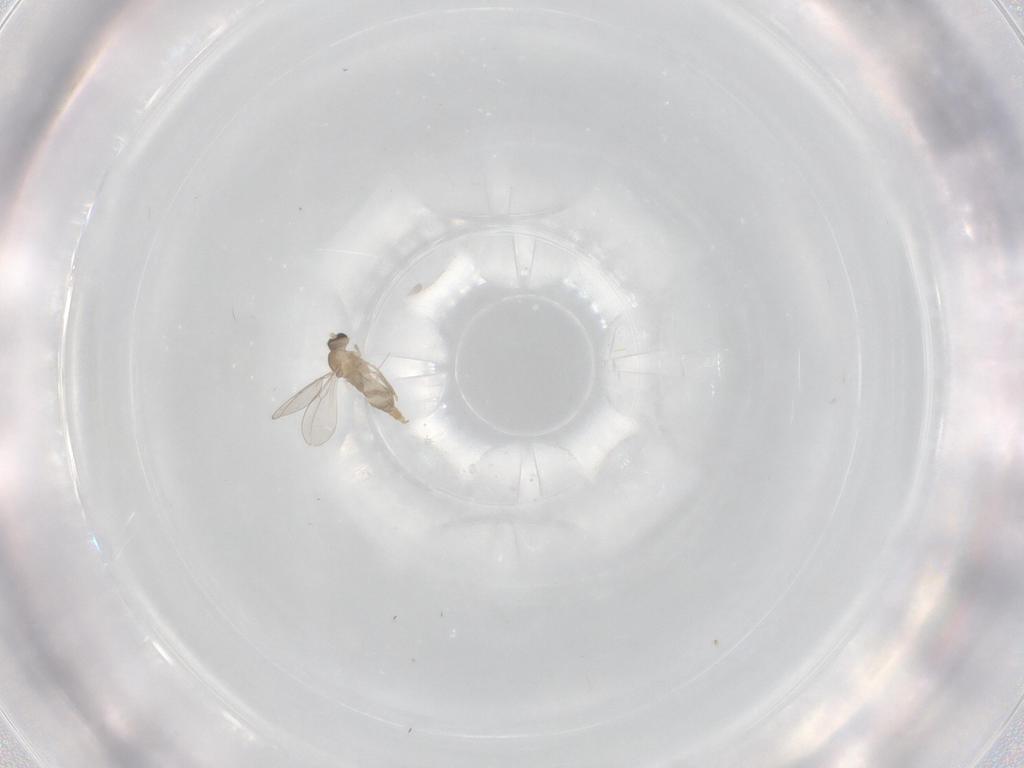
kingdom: Animalia
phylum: Arthropoda
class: Insecta
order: Diptera
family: Cecidomyiidae
